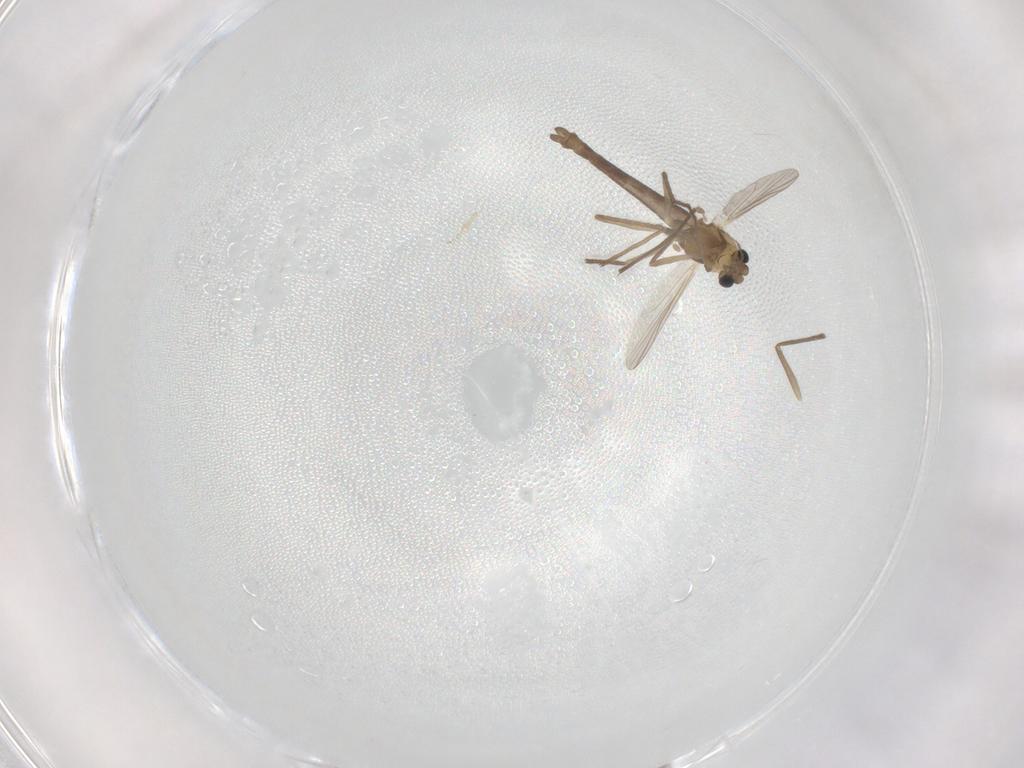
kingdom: Animalia
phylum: Arthropoda
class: Insecta
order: Diptera
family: Chironomidae
